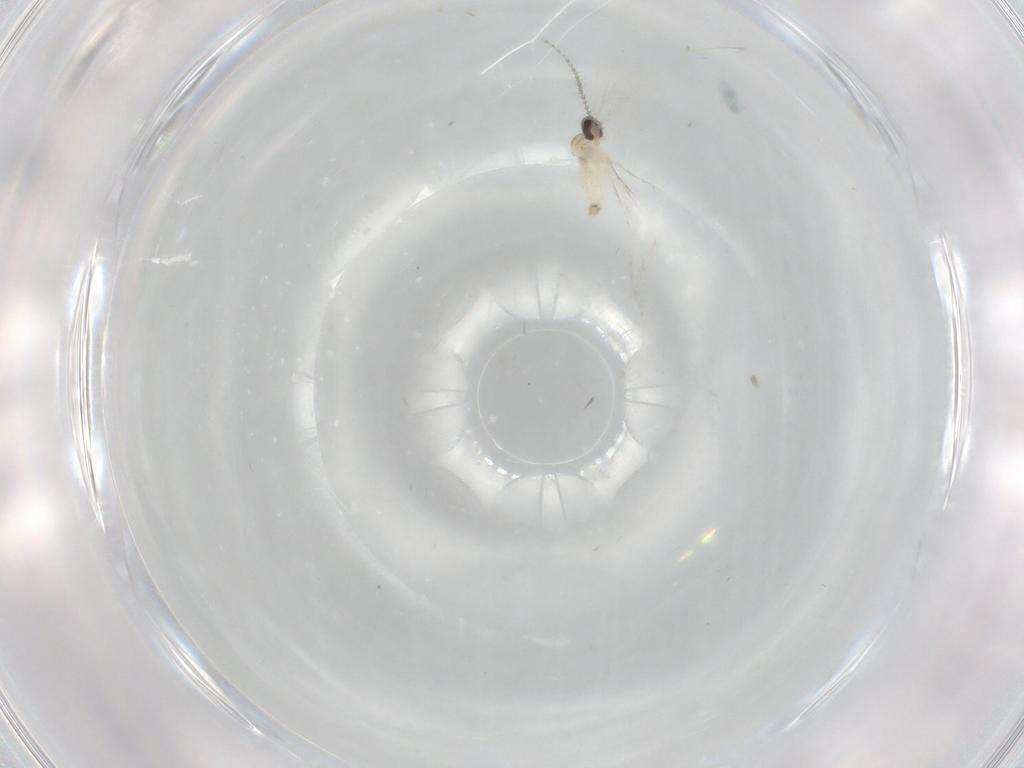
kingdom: Animalia
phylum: Arthropoda
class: Insecta
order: Diptera
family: Cecidomyiidae
